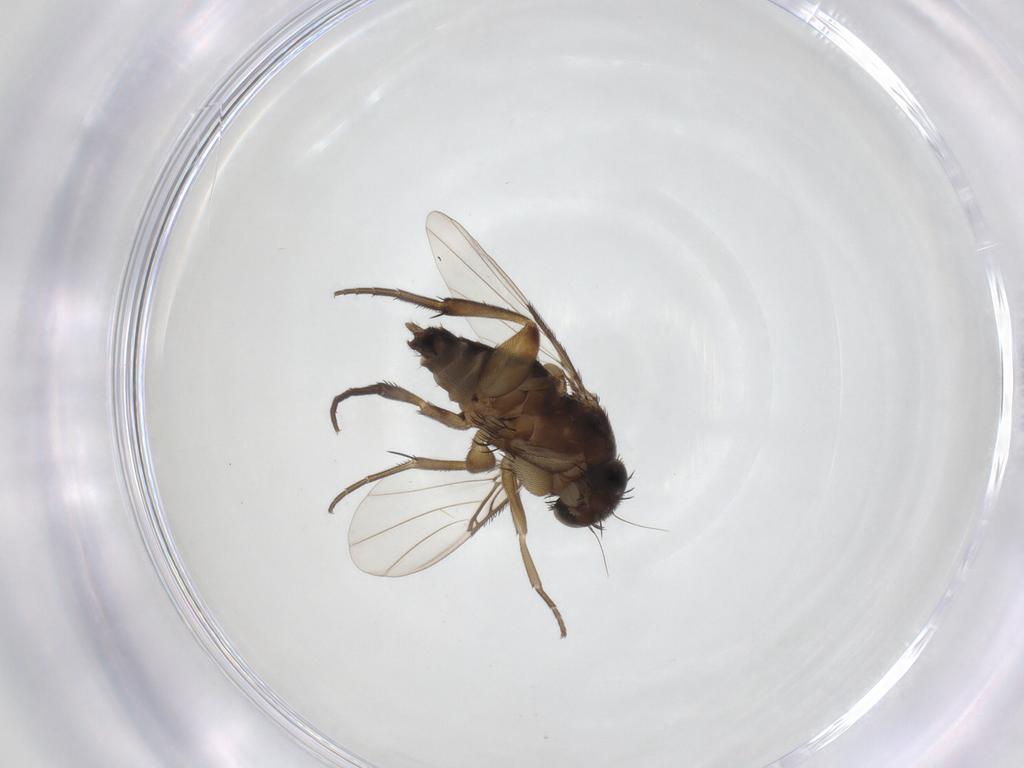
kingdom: Animalia
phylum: Arthropoda
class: Insecta
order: Diptera
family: Phoridae
